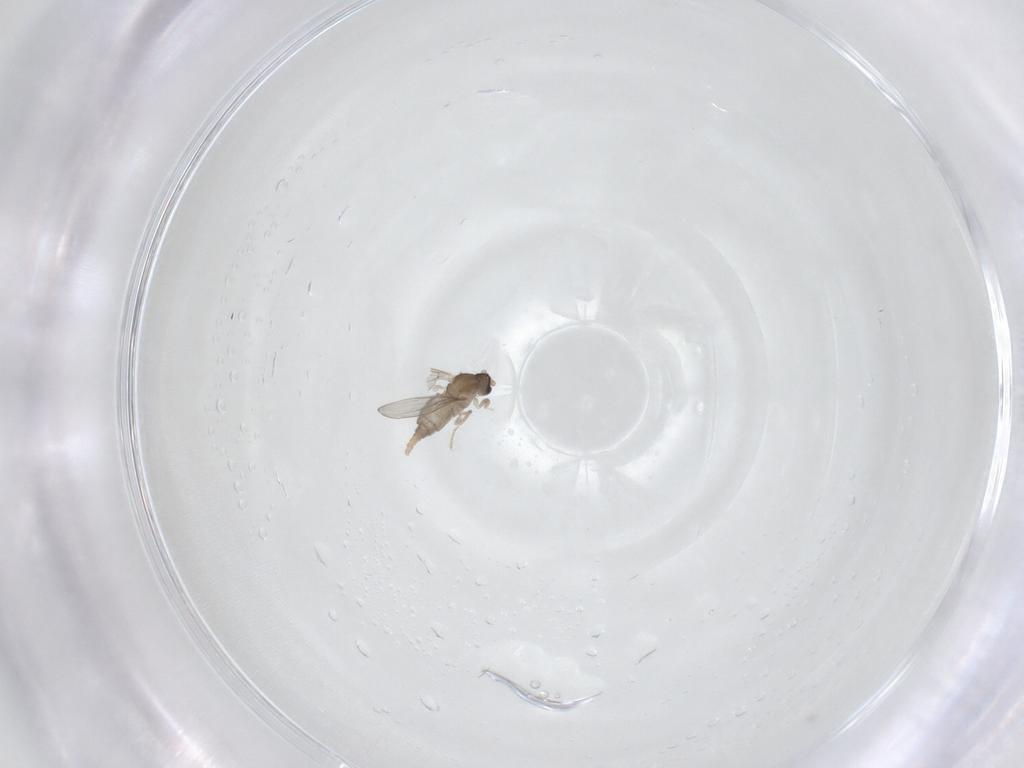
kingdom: Animalia
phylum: Arthropoda
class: Insecta
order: Diptera
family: Cecidomyiidae
